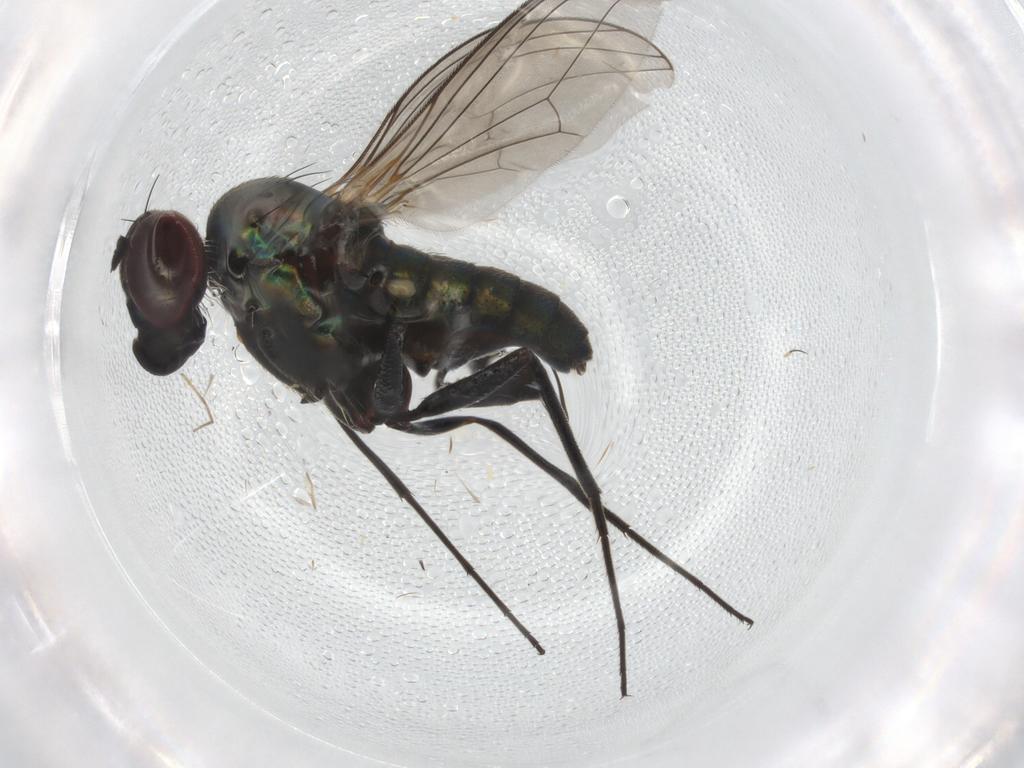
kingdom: Animalia
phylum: Arthropoda
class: Insecta
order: Diptera
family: Dolichopodidae
